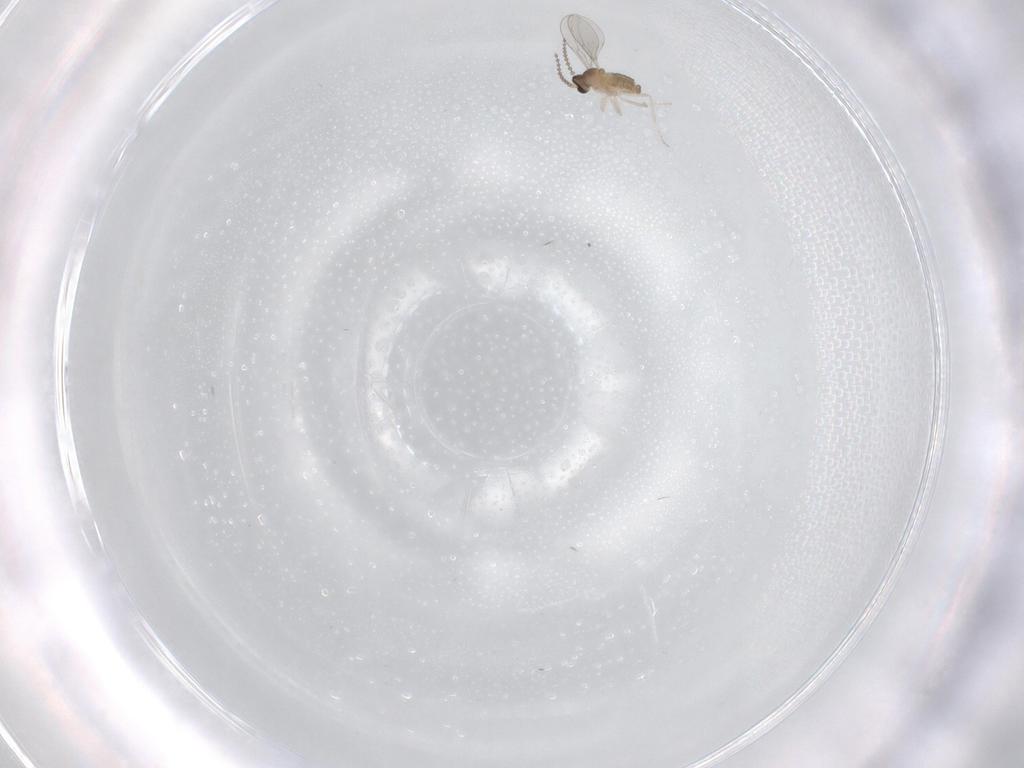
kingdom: Animalia
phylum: Arthropoda
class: Insecta
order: Diptera
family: Cecidomyiidae
